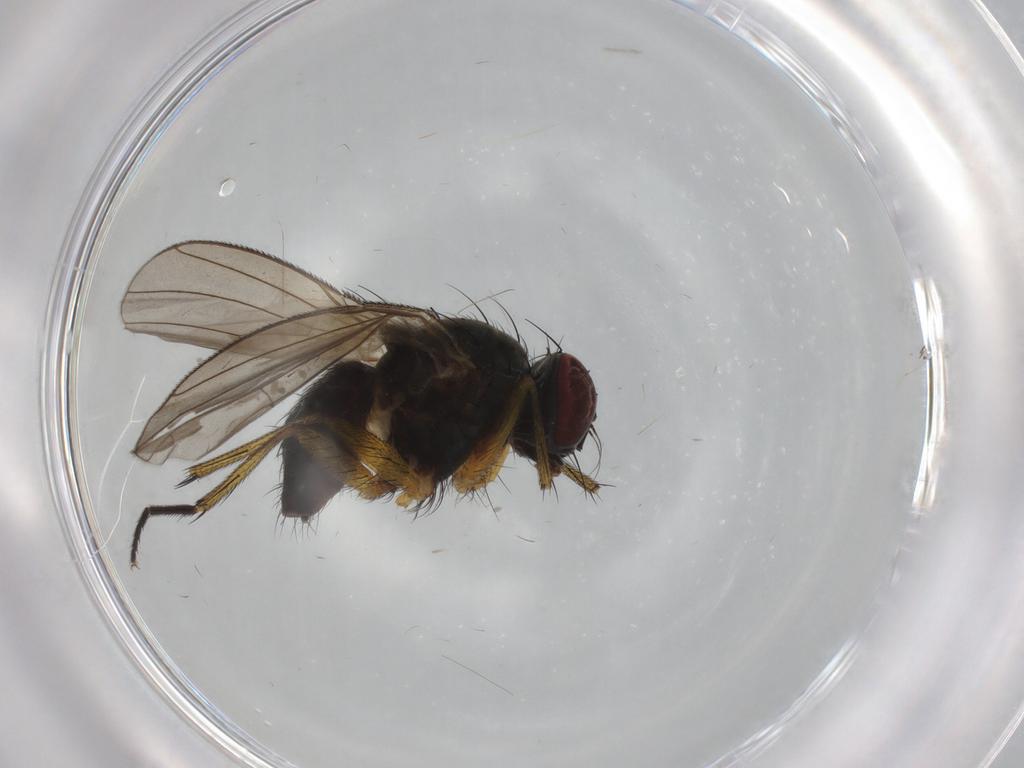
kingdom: Animalia
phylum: Arthropoda
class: Insecta
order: Diptera
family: Muscidae
